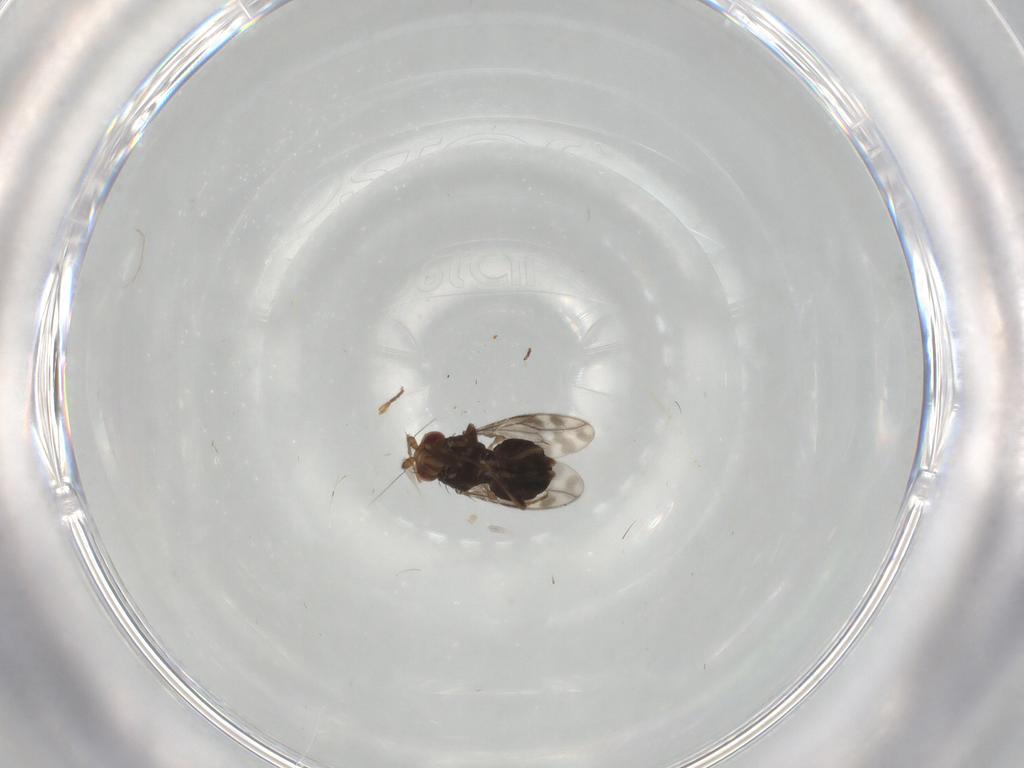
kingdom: Animalia
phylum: Arthropoda
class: Insecta
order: Diptera
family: Sphaeroceridae
